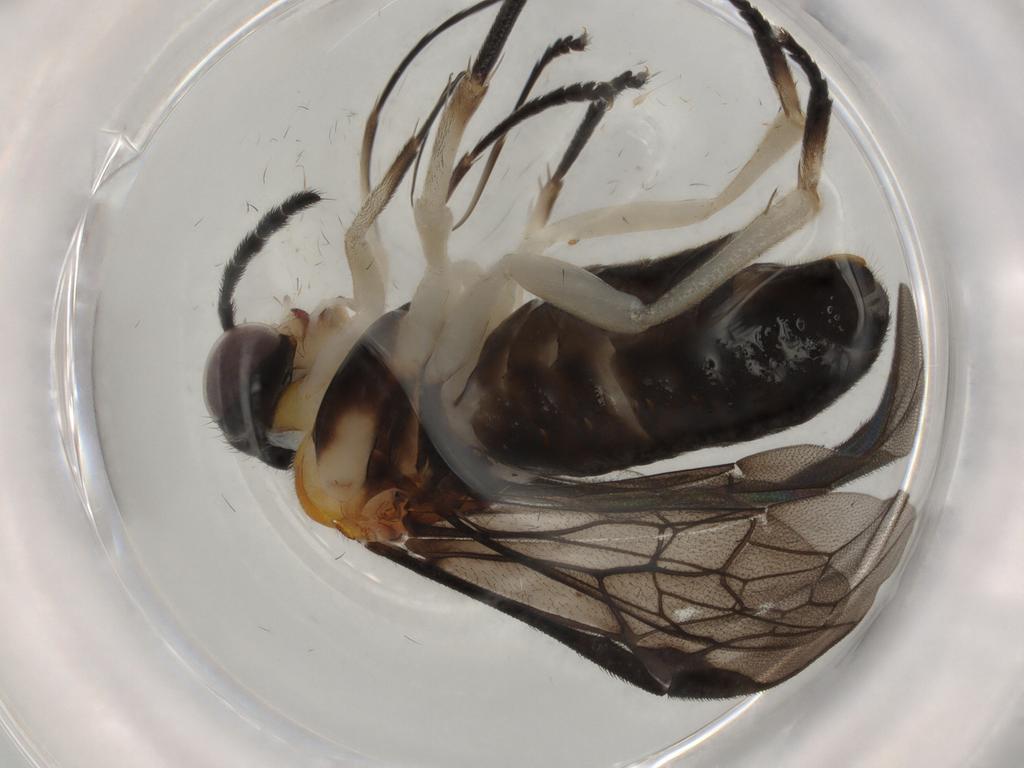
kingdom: Animalia
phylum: Arthropoda
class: Insecta
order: Hymenoptera
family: Pergidae
